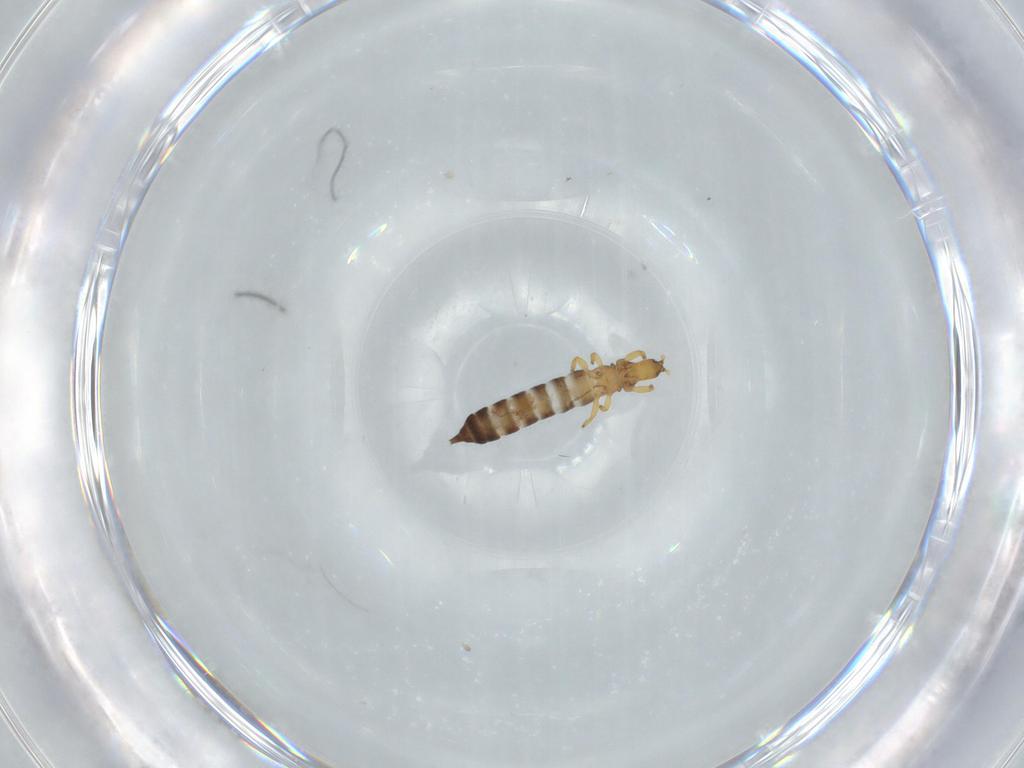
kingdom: Animalia
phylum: Arthropoda
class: Insecta
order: Thysanoptera
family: Phlaeothripidae
